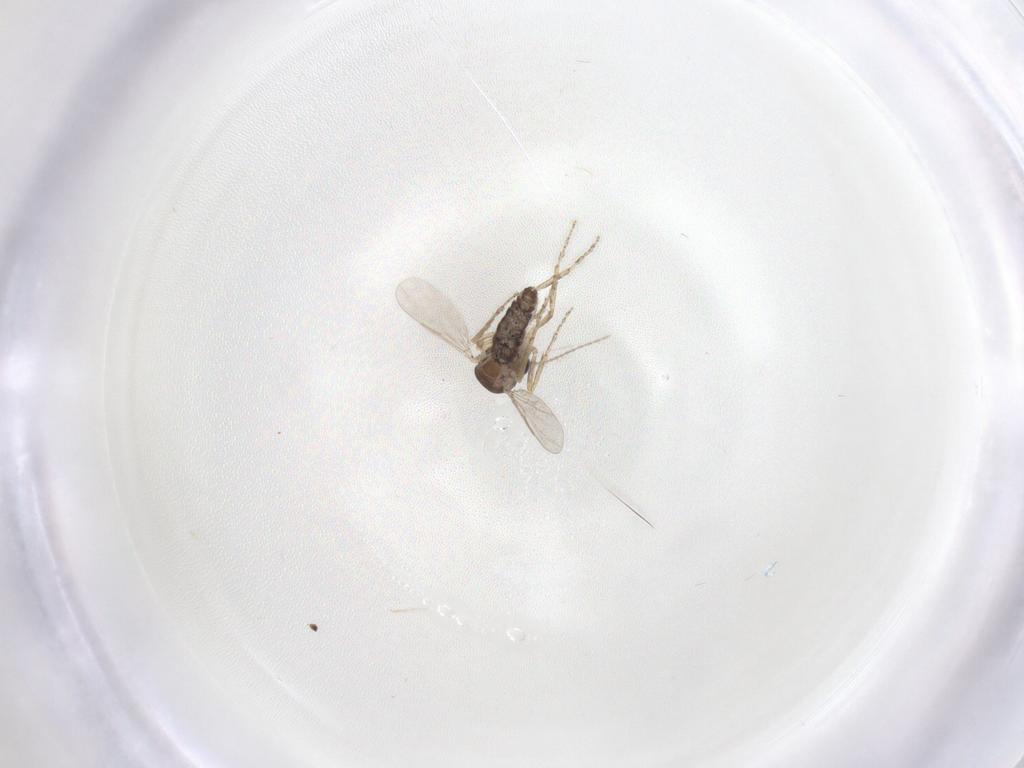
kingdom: Animalia
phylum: Arthropoda
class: Insecta
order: Diptera
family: Ceratopogonidae
